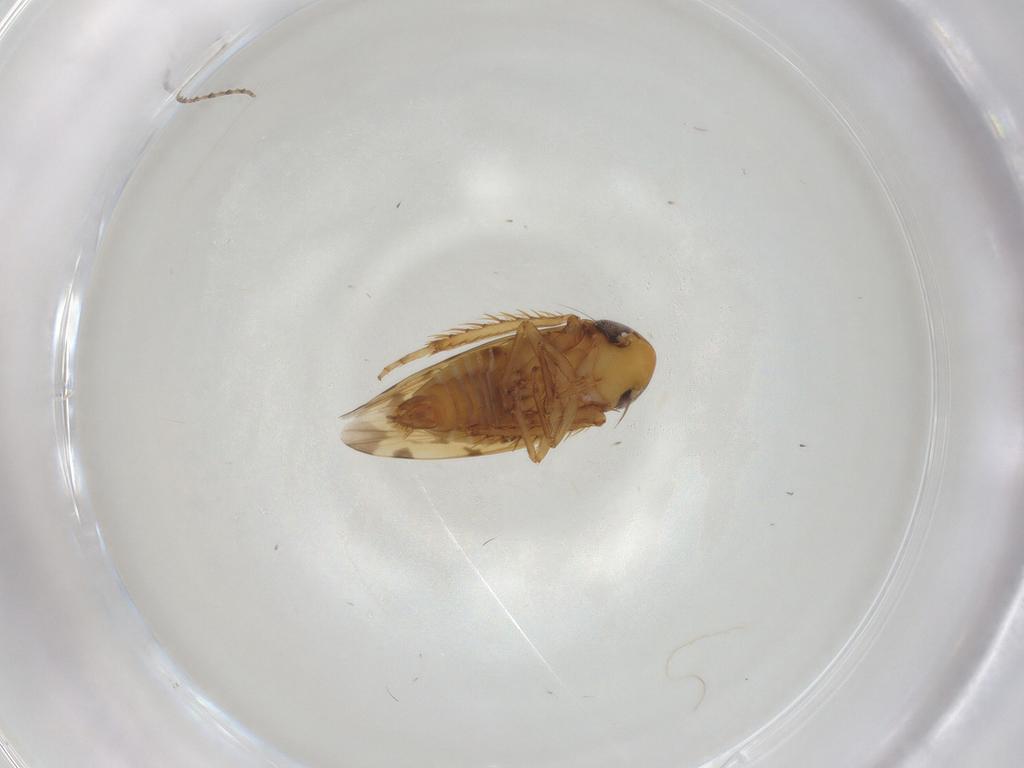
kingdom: Animalia
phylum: Arthropoda
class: Insecta
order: Hemiptera
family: Cicadellidae
